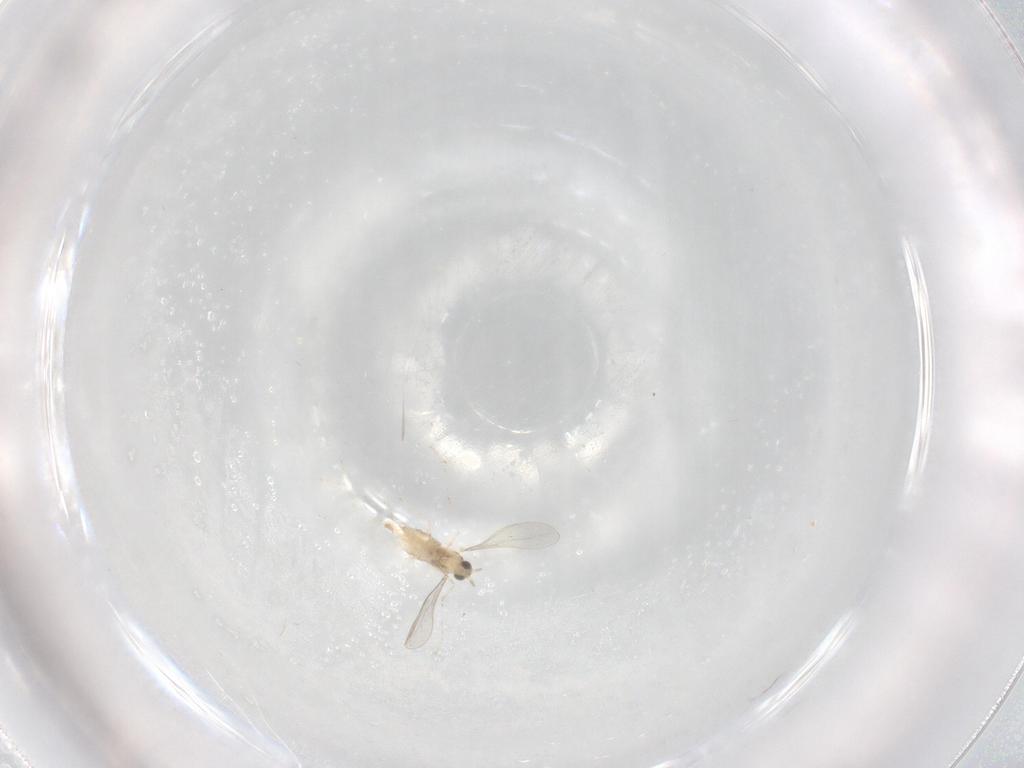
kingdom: Animalia
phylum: Arthropoda
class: Insecta
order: Diptera
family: Cecidomyiidae
